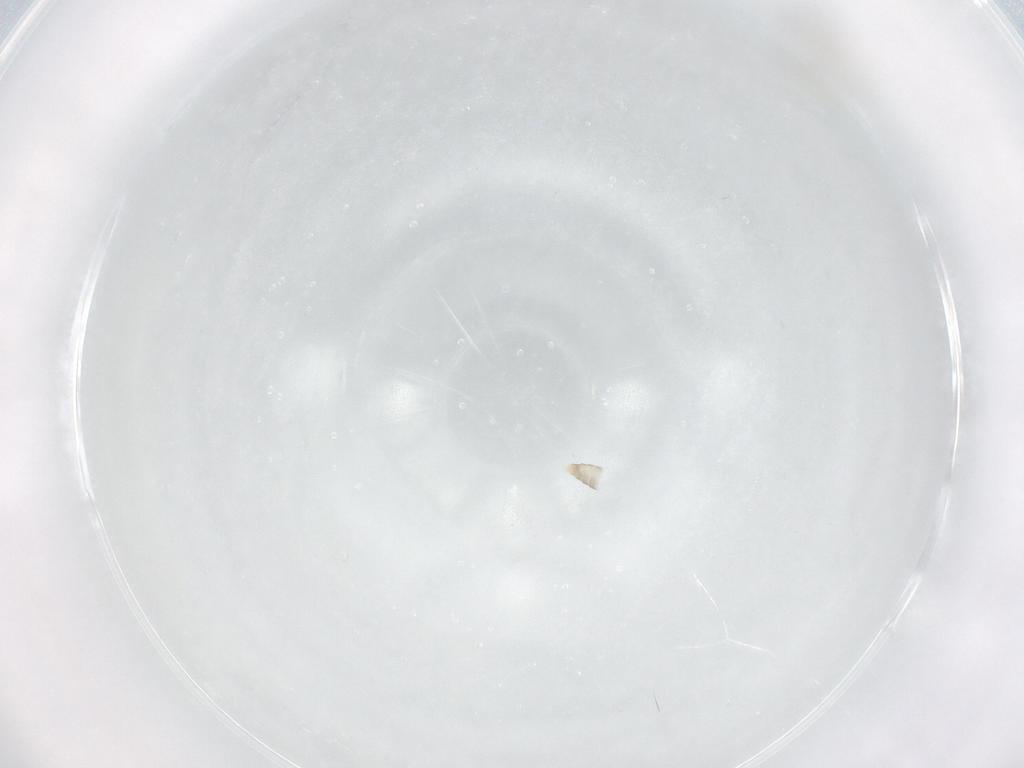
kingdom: Animalia
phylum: Arthropoda
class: Insecta
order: Diptera
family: Cecidomyiidae
